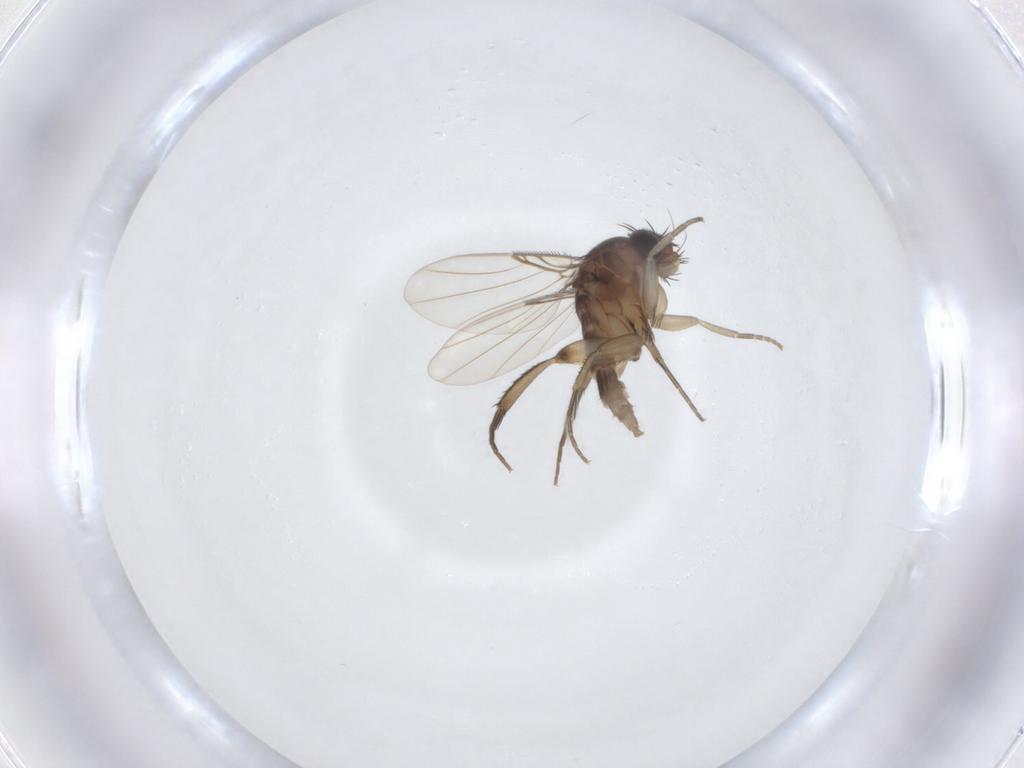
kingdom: Animalia
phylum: Arthropoda
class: Insecta
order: Diptera
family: Phoridae
